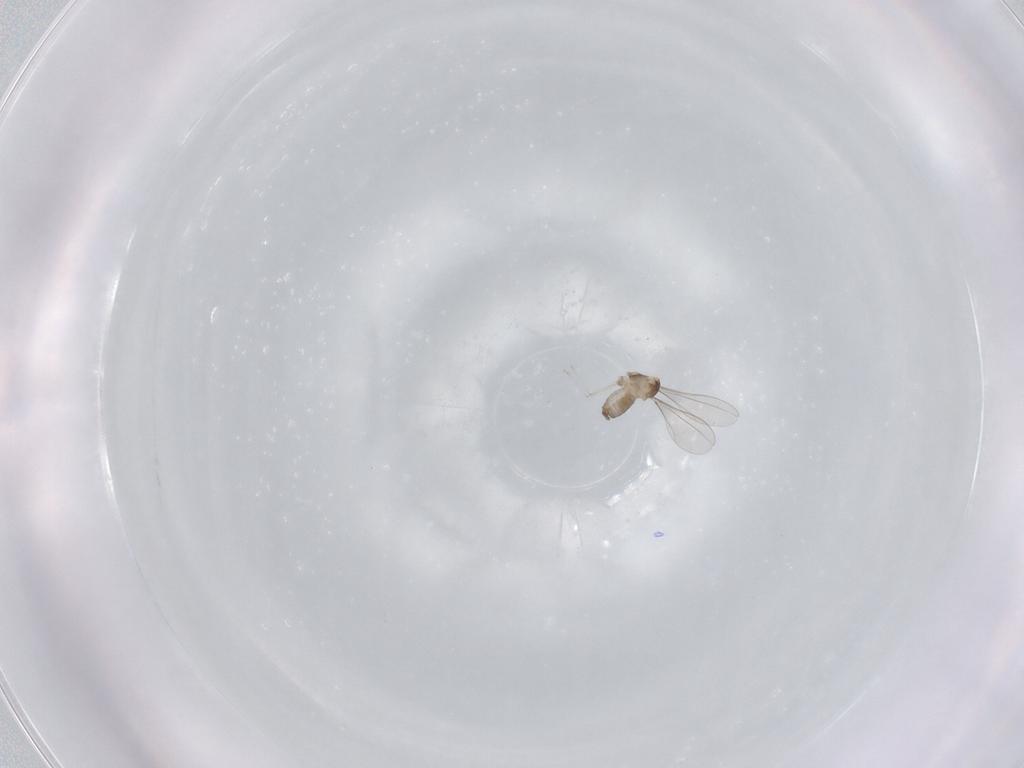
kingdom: Animalia
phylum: Arthropoda
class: Insecta
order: Diptera
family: Ceratopogonidae
